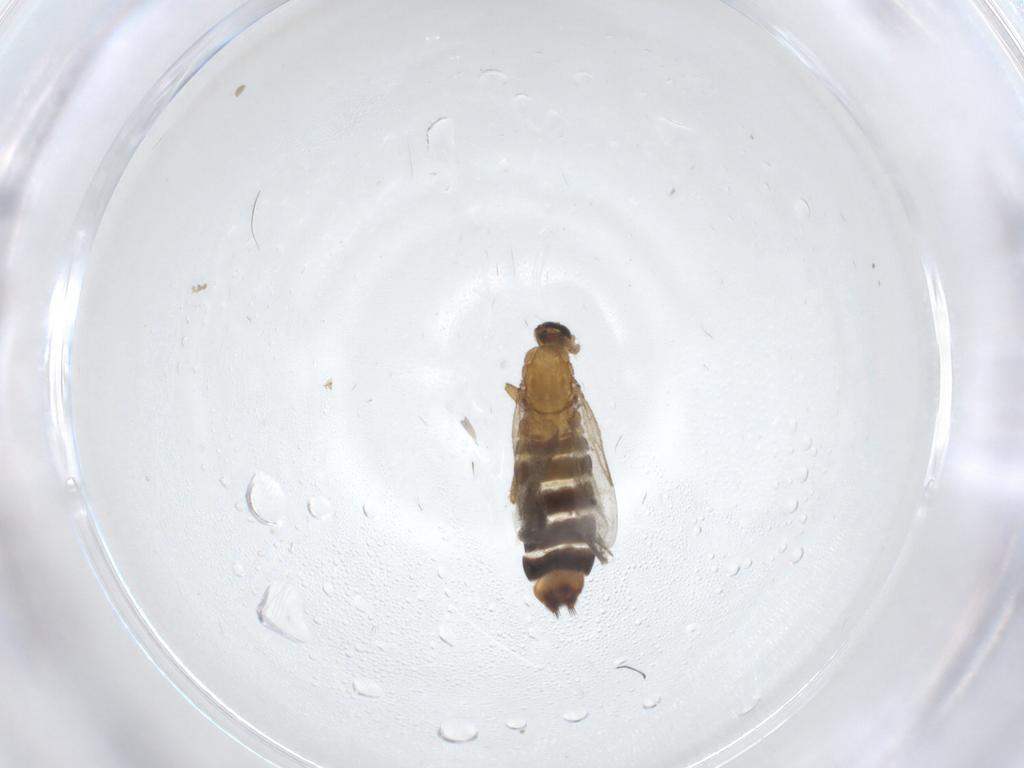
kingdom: Animalia
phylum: Arthropoda
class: Insecta
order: Diptera
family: Scatopsidae
